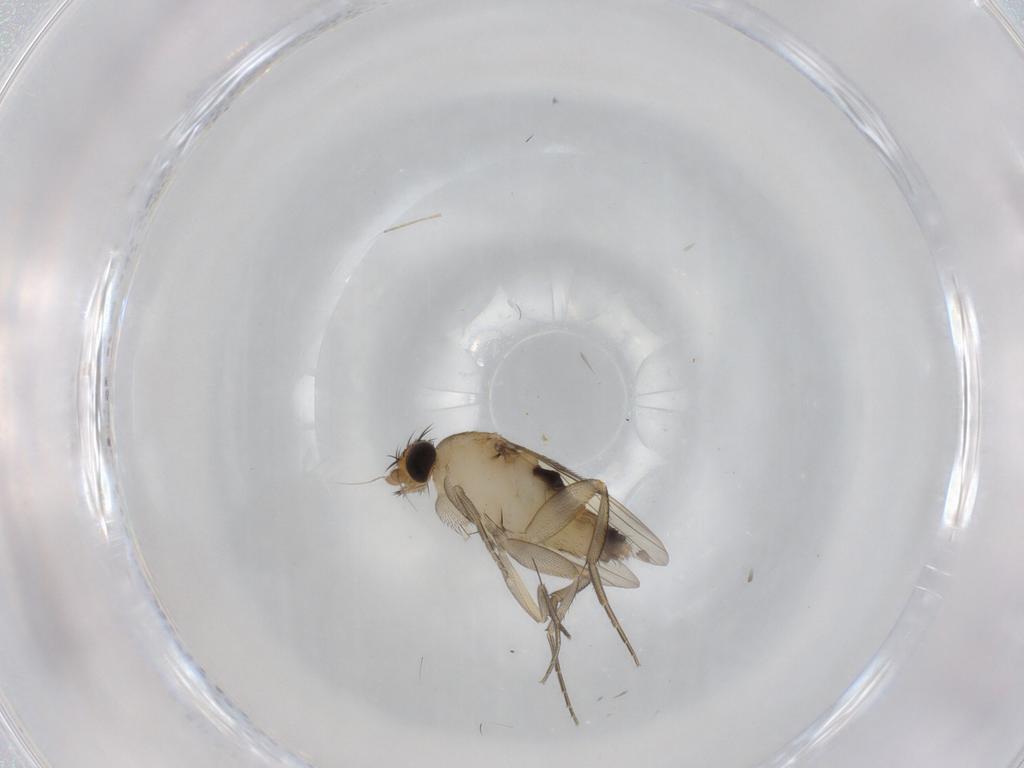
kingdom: Animalia
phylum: Arthropoda
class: Insecta
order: Diptera
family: Phoridae
